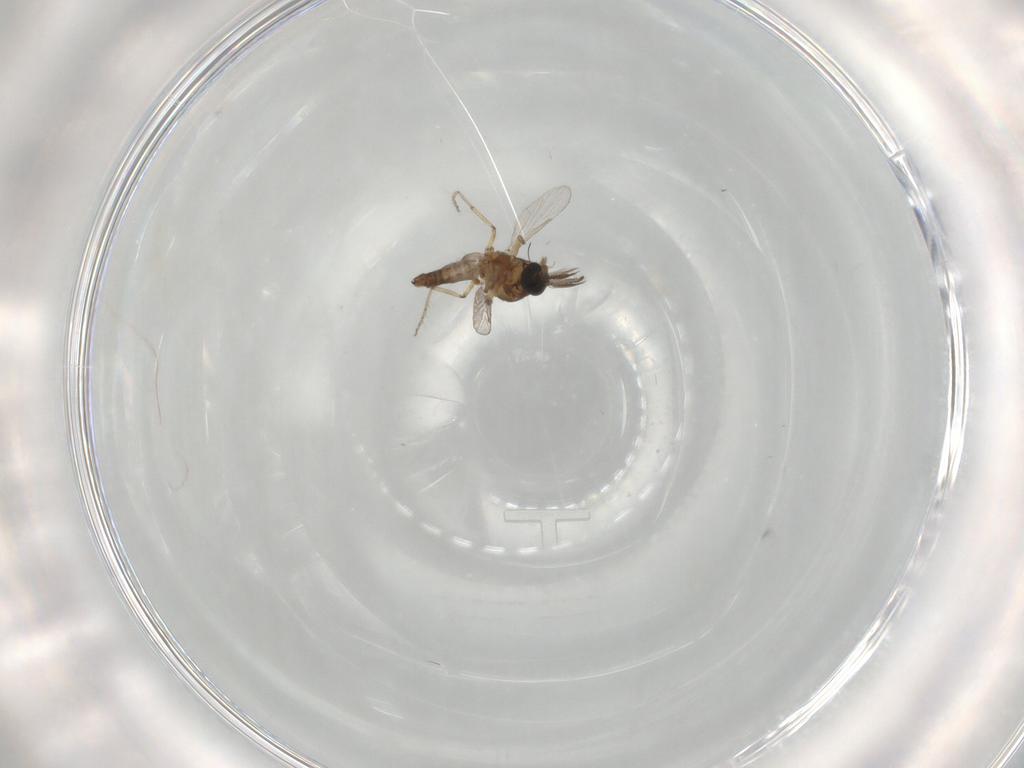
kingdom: Animalia
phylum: Arthropoda
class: Insecta
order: Diptera
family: Ceratopogonidae
